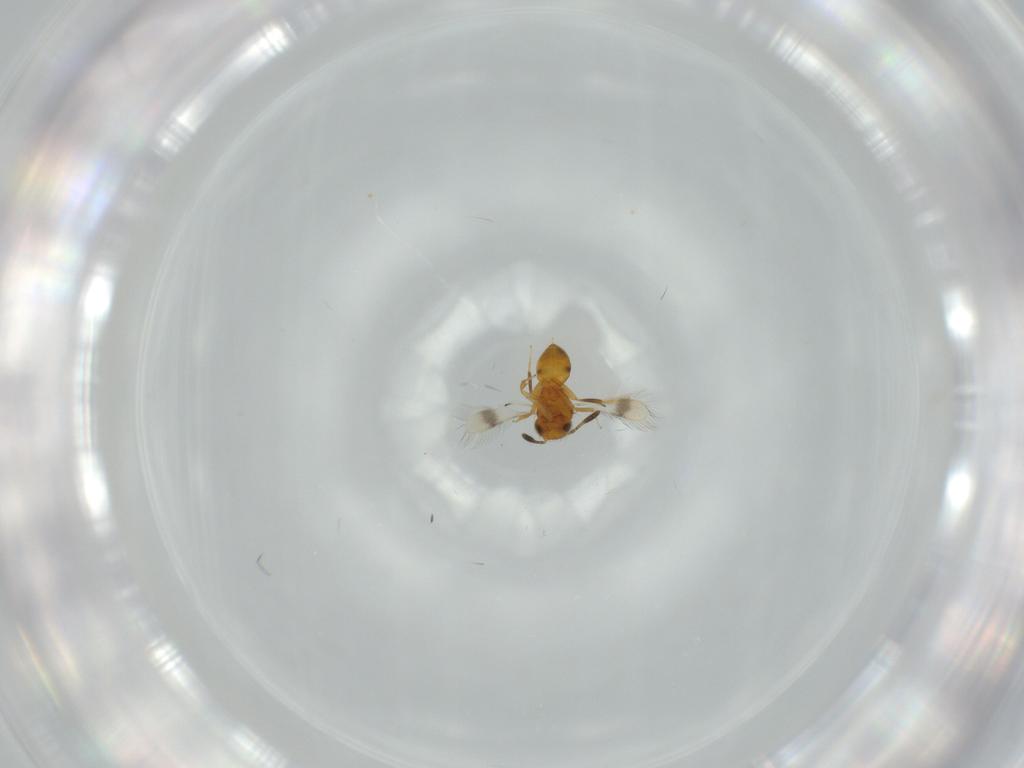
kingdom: Animalia
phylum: Arthropoda
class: Insecta
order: Hymenoptera
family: Scelionidae
